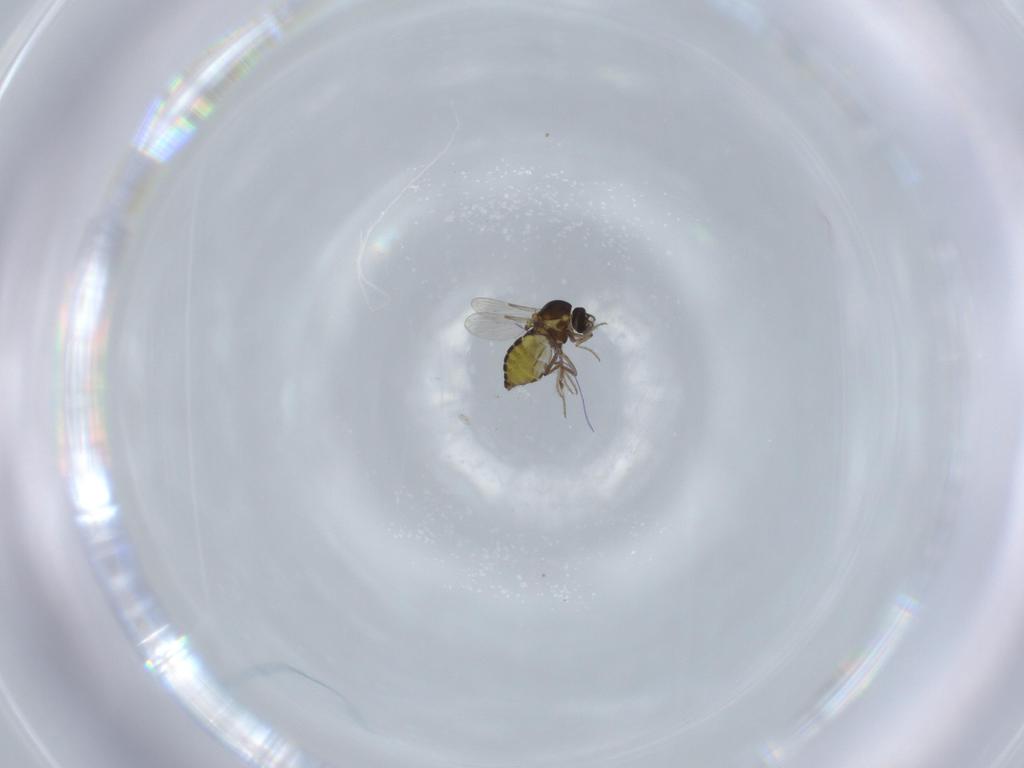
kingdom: Animalia
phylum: Arthropoda
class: Insecta
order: Diptera
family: Ceratopogonidae
